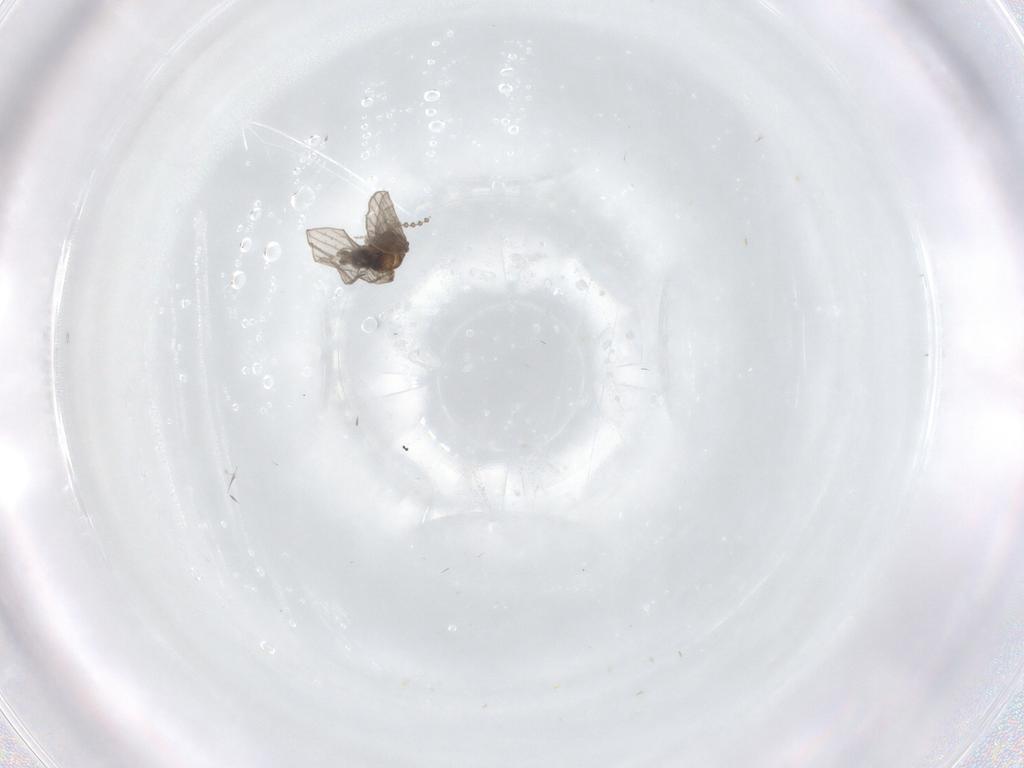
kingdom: Animalia
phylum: Arthropoda
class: Insecta
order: Diptera
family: Psychodidae
